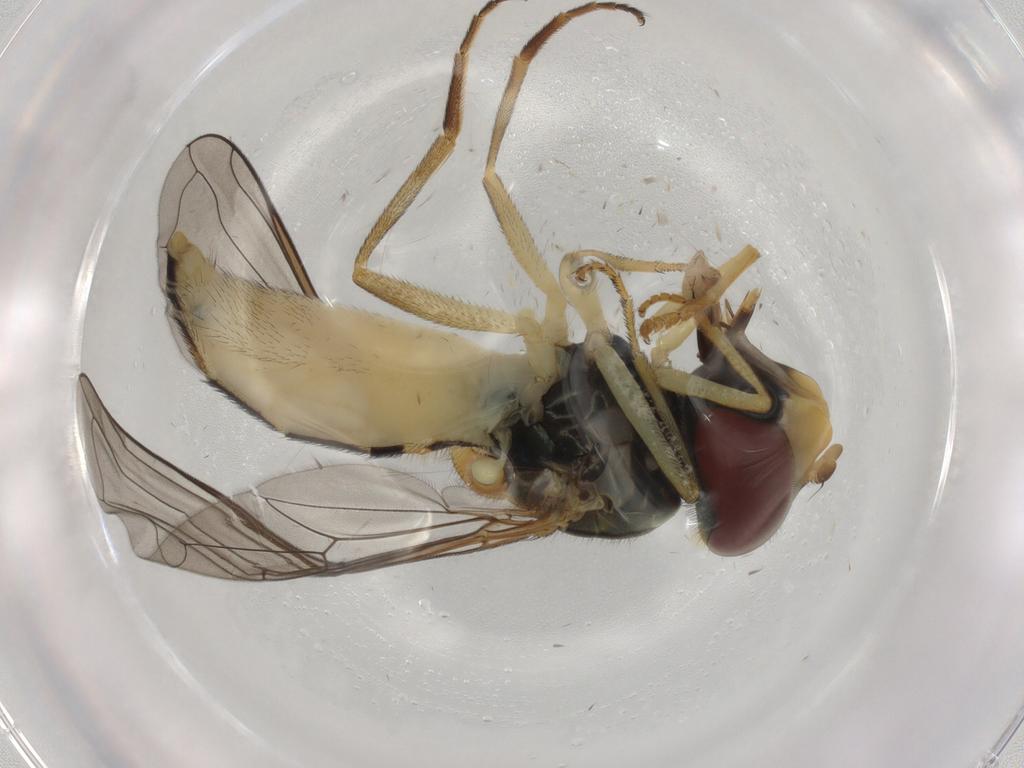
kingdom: Animalia
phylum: Arthropoda
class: Insecta
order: Diptera
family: Syrphidae
